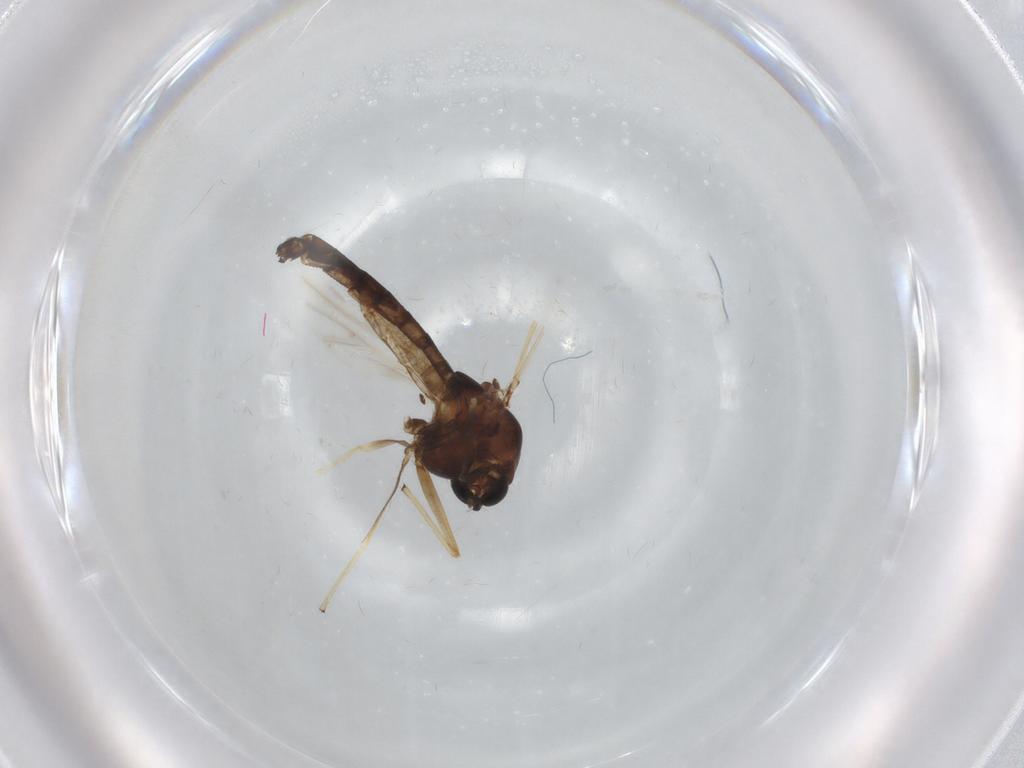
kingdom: Animalia
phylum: Arthropoda
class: Insecta
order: Diptera
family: Chironomidae
